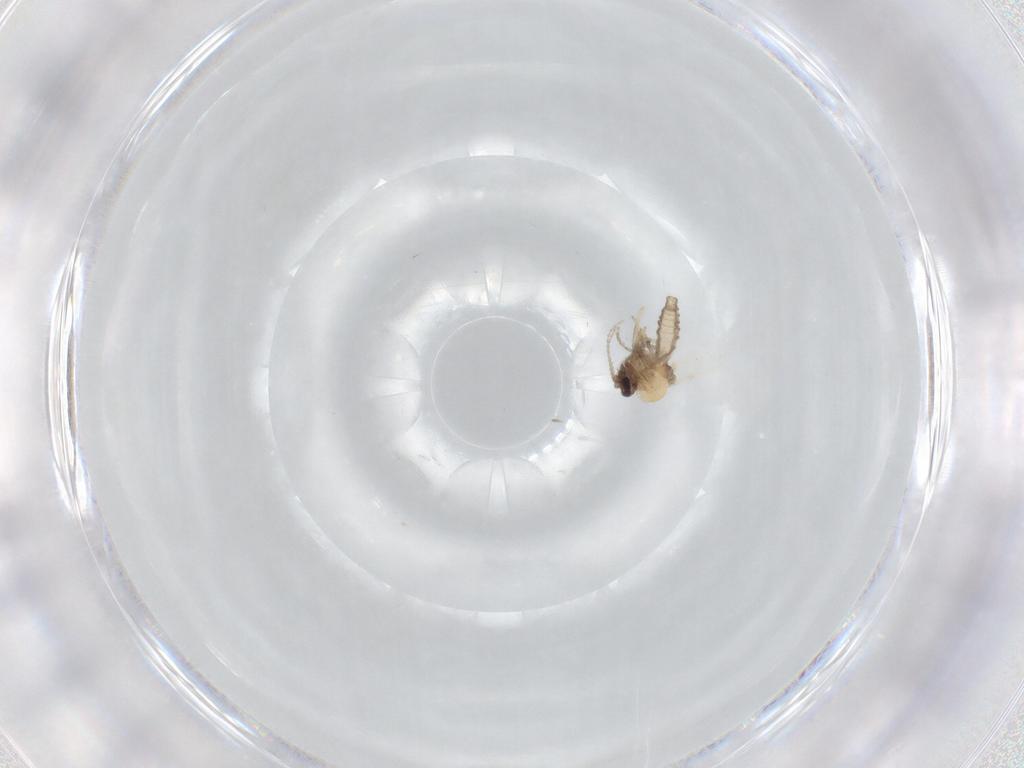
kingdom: Animalia
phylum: Arthropoda
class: Insecta
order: Diptera
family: Ceratopogonidae
